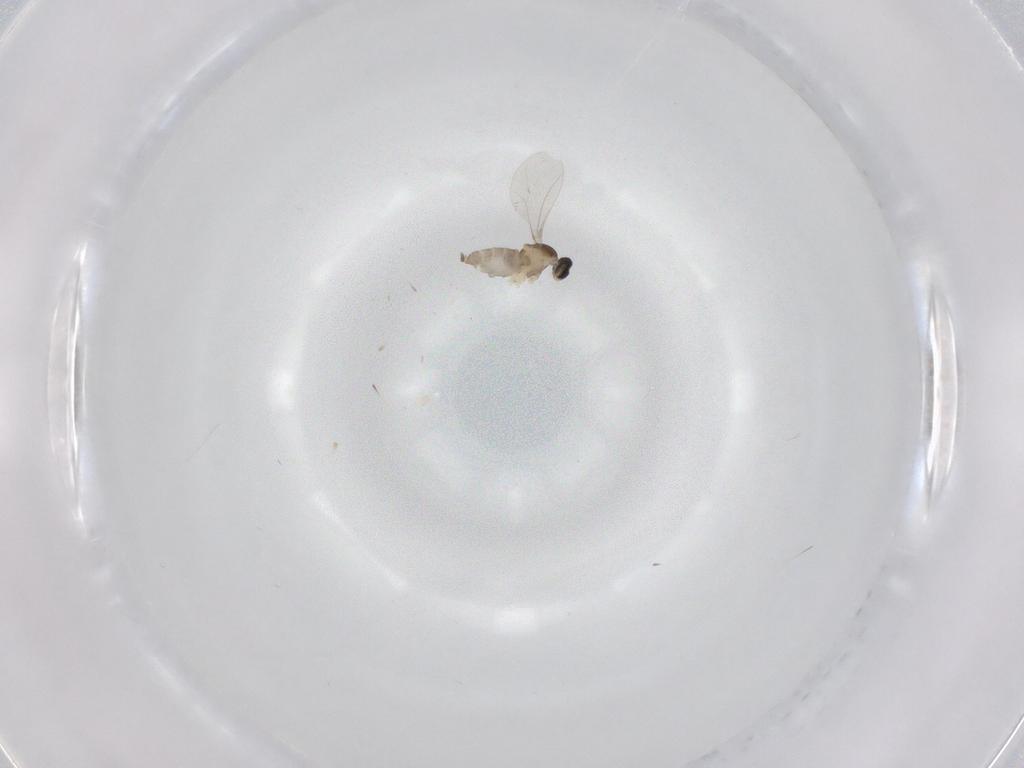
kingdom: Animalia
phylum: Arthropoda
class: Insecta
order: Diptera
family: Cecidomyiidae
